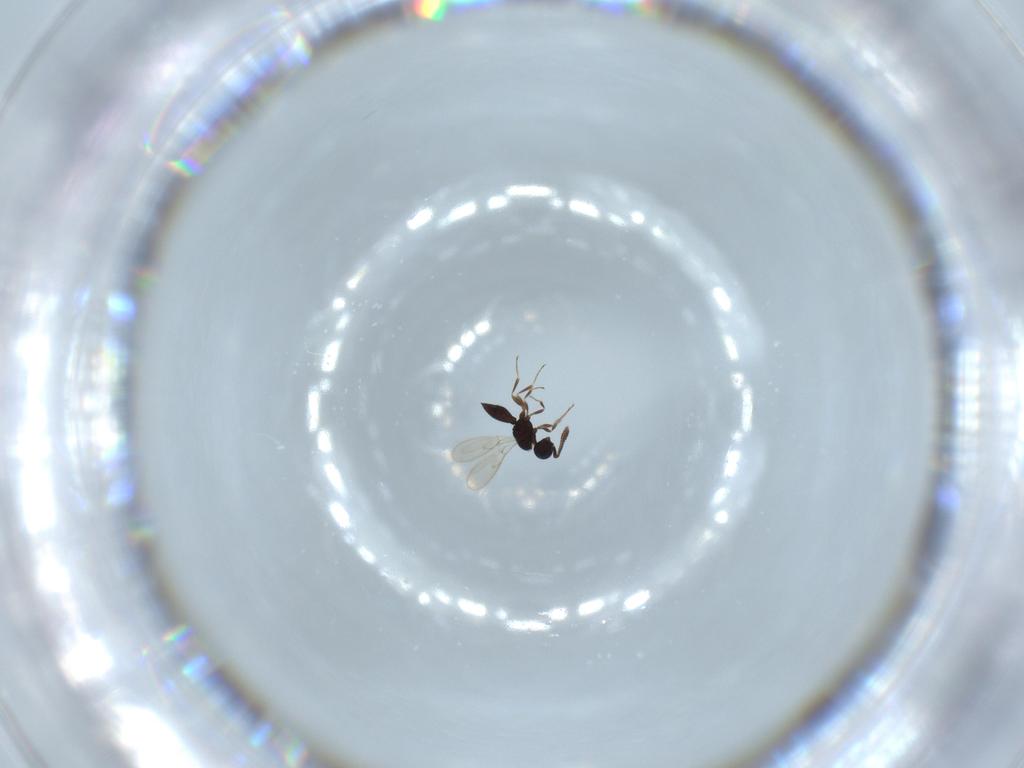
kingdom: Animalia
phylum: Arthropoda
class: Insecta
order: Hymenoptera
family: Scelionidae
